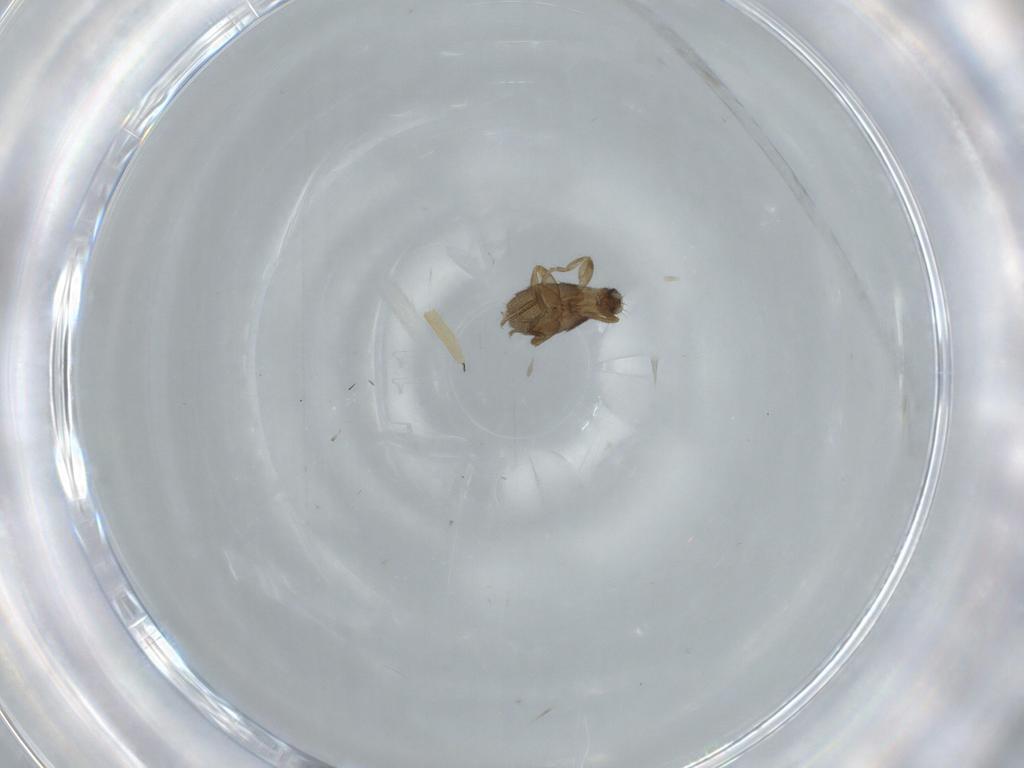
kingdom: Animalia
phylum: Arthropoda
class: Insecta
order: Diptera
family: Phoridae
